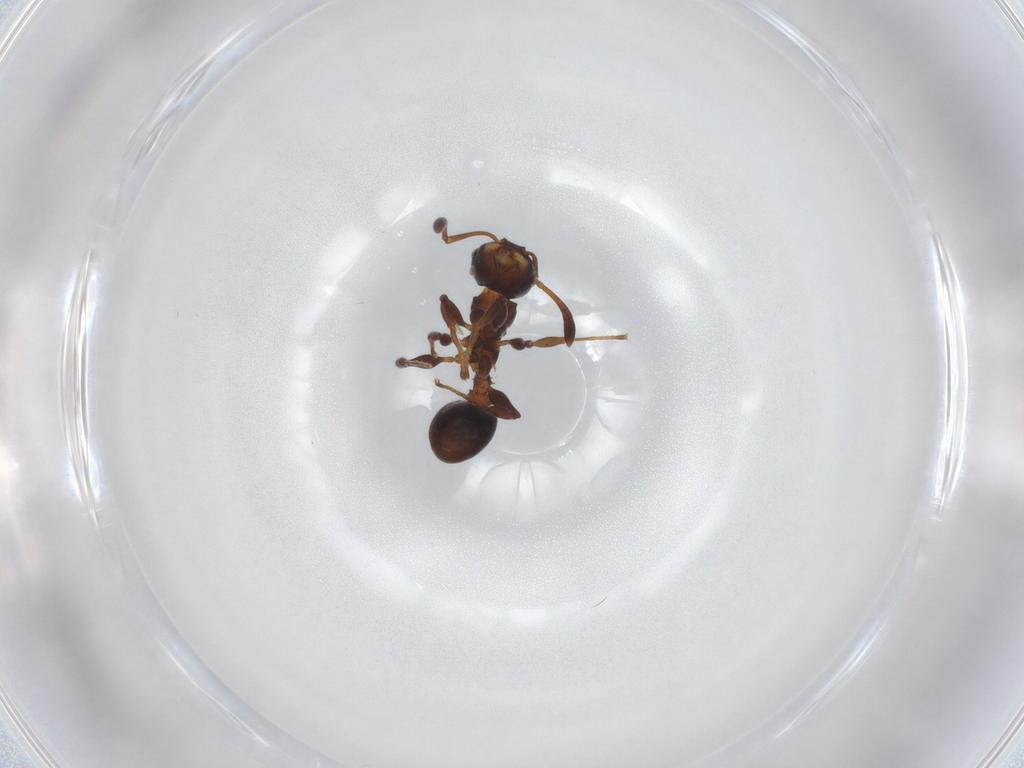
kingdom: Animalia
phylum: Arthropoda
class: Insecta
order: Hymenoptera
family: Formicidae
